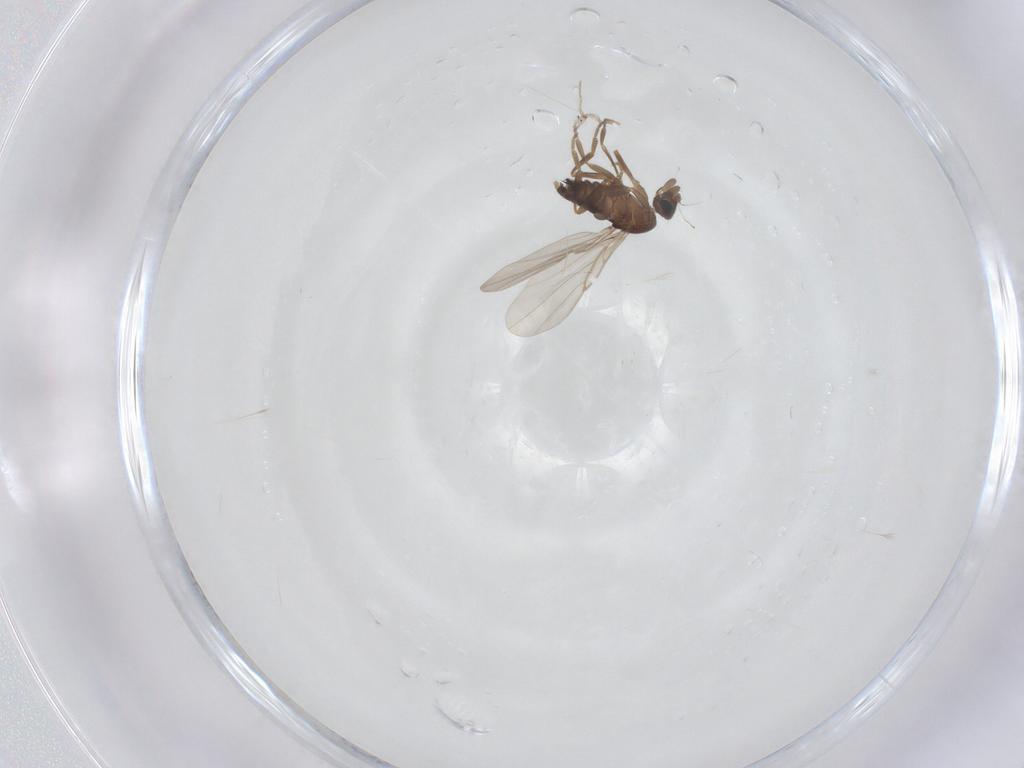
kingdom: Animalia
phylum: Arthropoda
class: Insecta
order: Diptera
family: Phoridae
